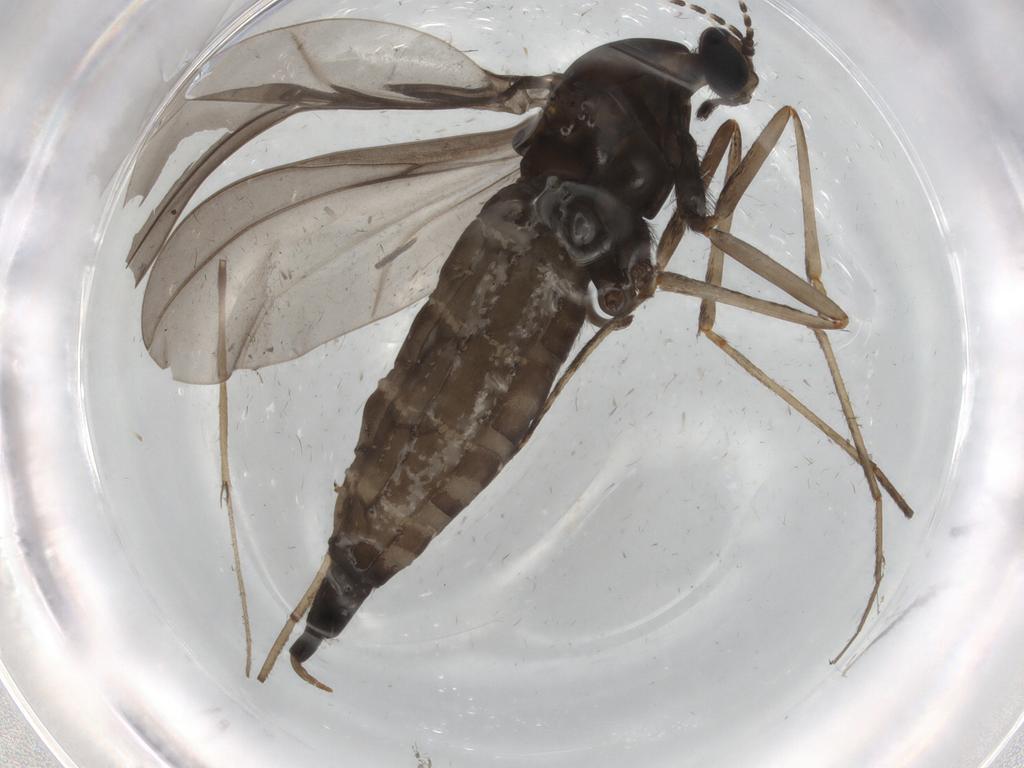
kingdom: Animalia
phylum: Arthropoda
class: Insecta
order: Diptera
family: Cecidomyiidae
